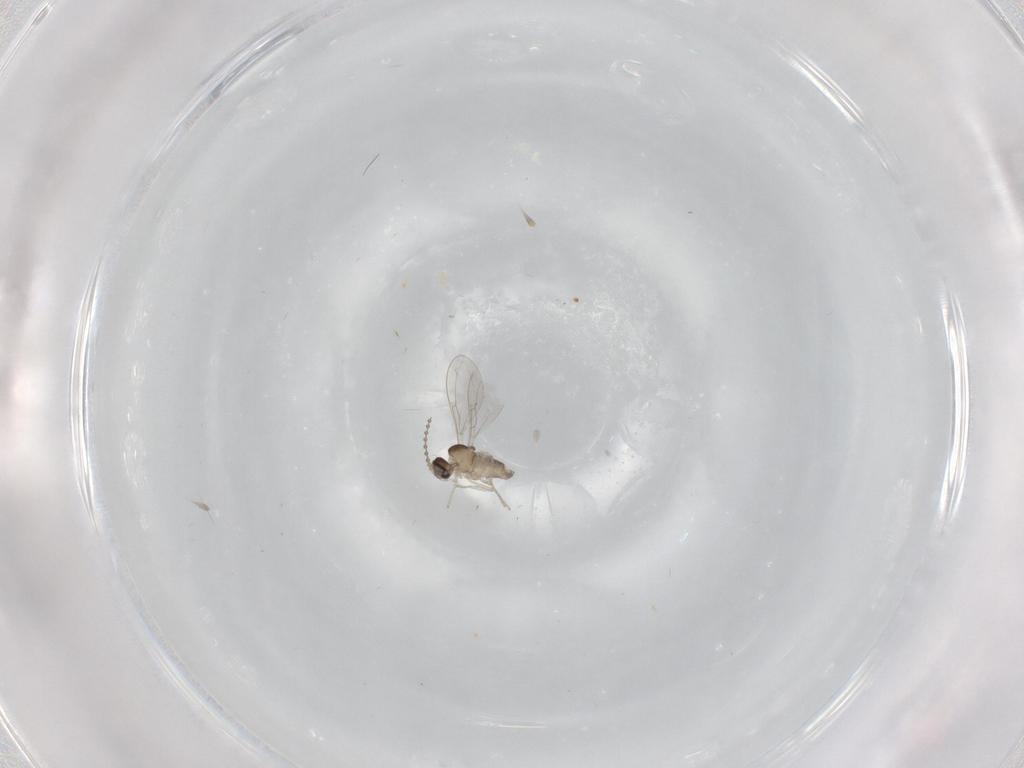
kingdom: Animalia
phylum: Arthropoda
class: Insecta
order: Diptera
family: Cecidomyiidae
